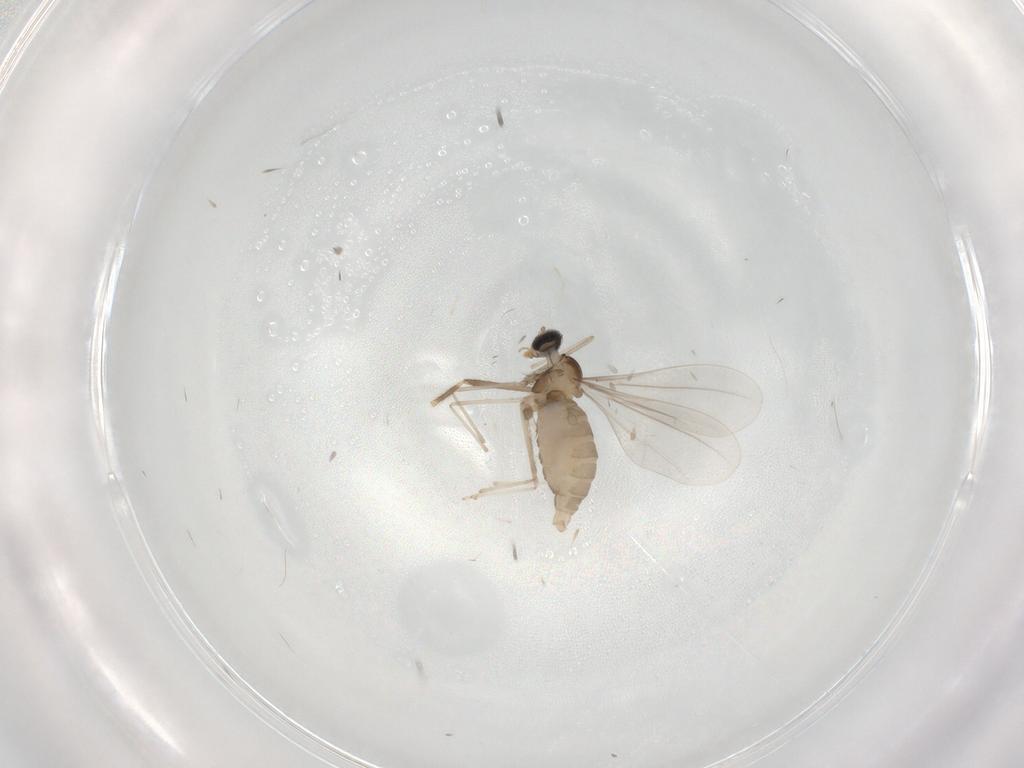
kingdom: Animalia
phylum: Arthropoda
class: Insecta
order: Diptera
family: Cecidomyiidae
